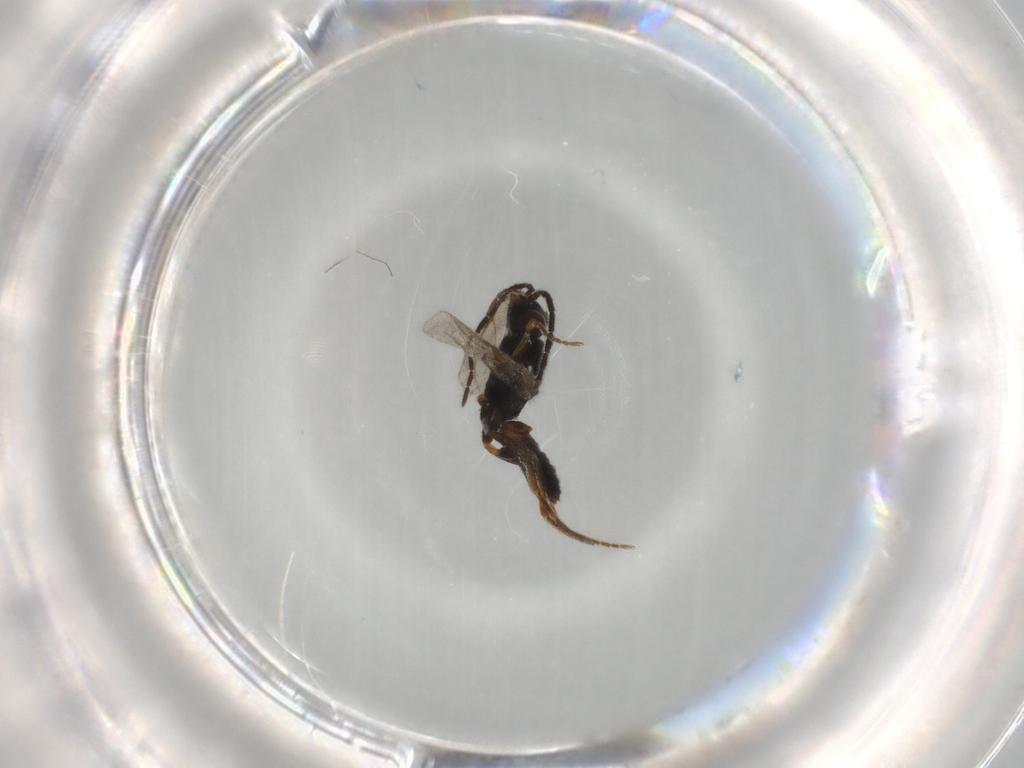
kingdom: Animalia
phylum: Arthropoda
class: Insecta
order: Hymenoptera
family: Braconidae
